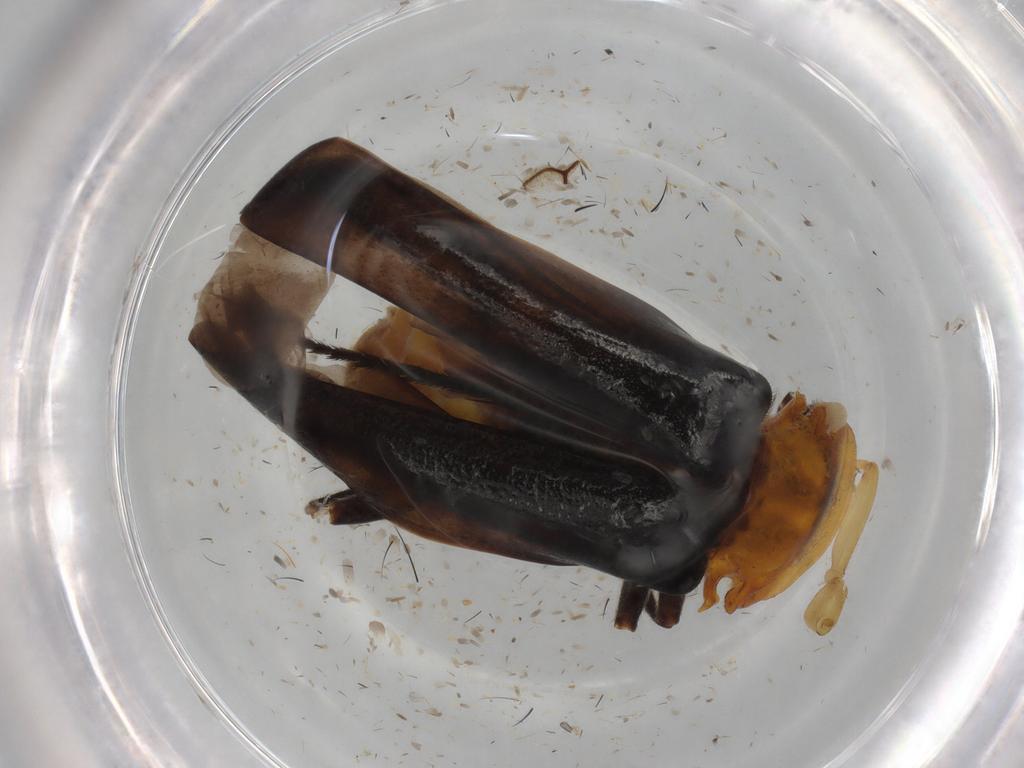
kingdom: Animalia
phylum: Arthropoda
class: Insecta
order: Coleoptera
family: Cantharidae
